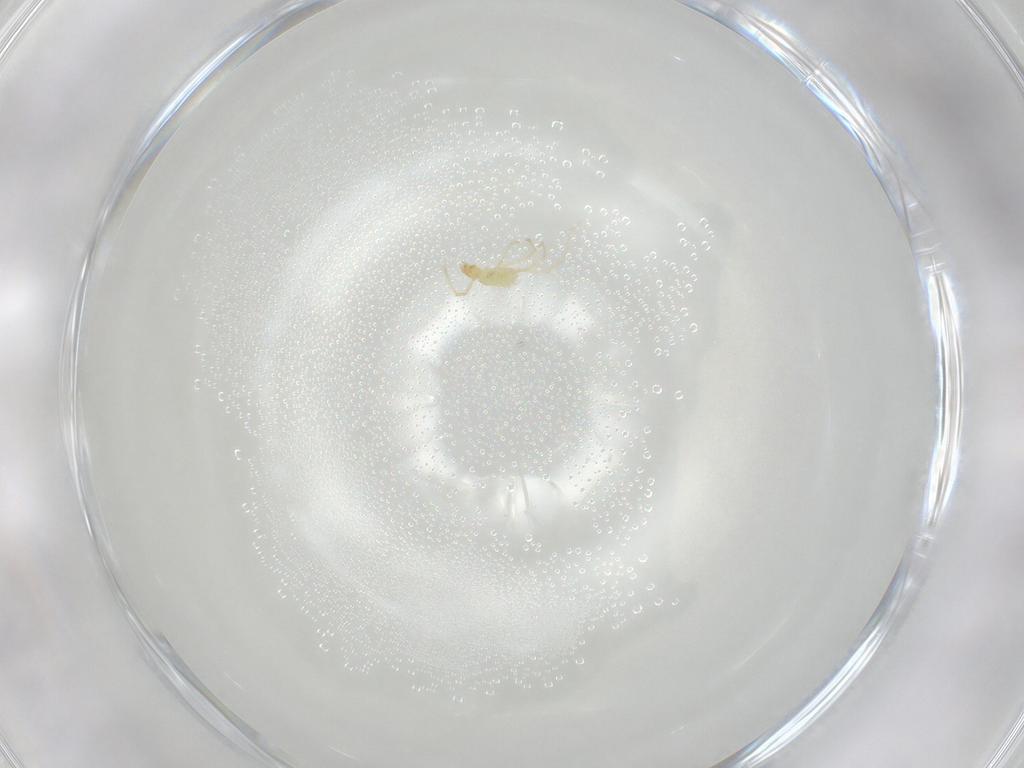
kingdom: Animalia
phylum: Arthropoda
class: Arachnida
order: Trombidiformes
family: Erythraeidae
